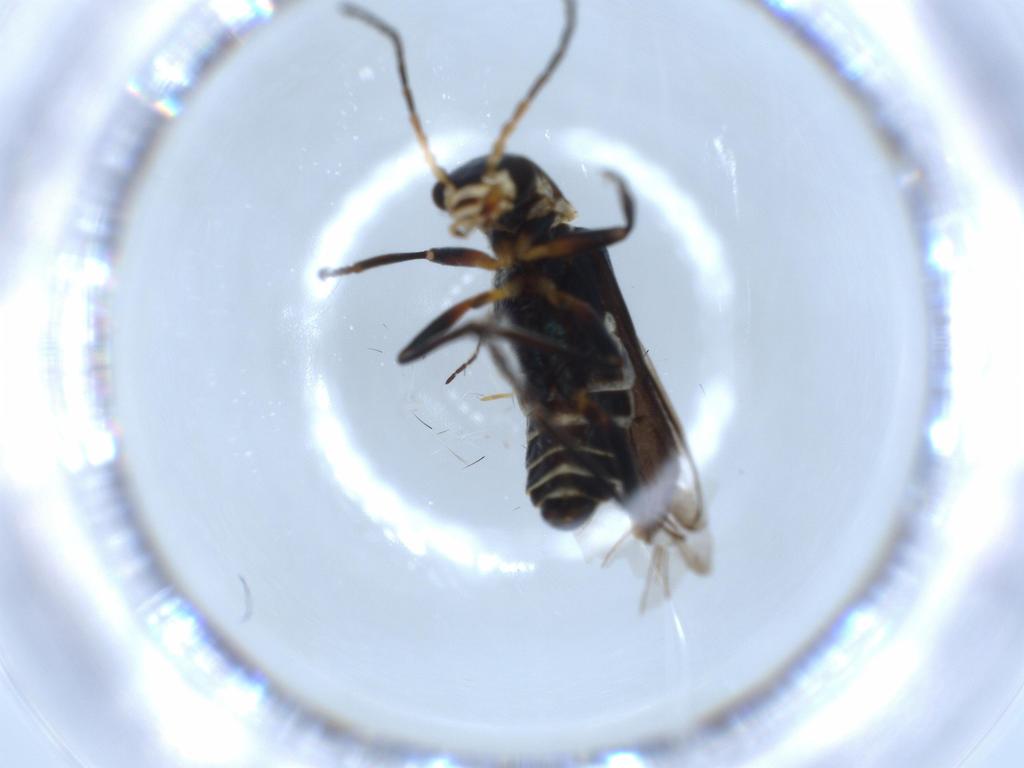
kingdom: Animalia
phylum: Arthropoda
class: Insecta
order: Coleoptera
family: Melyridae
